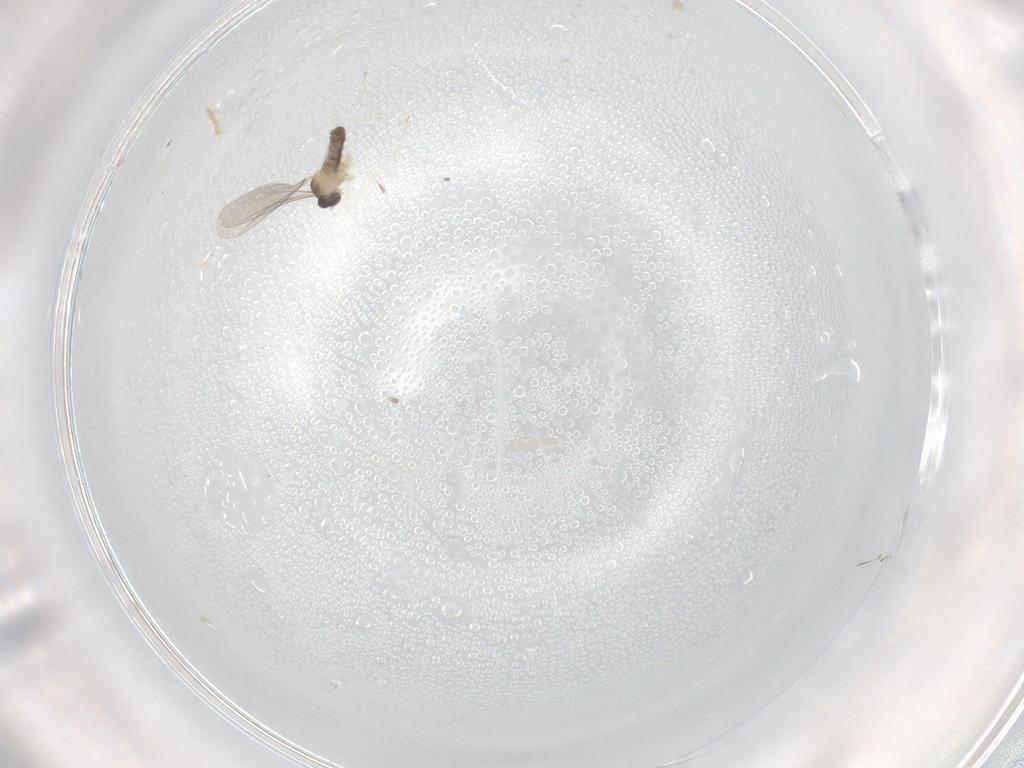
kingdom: Animalia
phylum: Arthropoda
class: Insecta
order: Diptera
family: Cecidomyiidae
